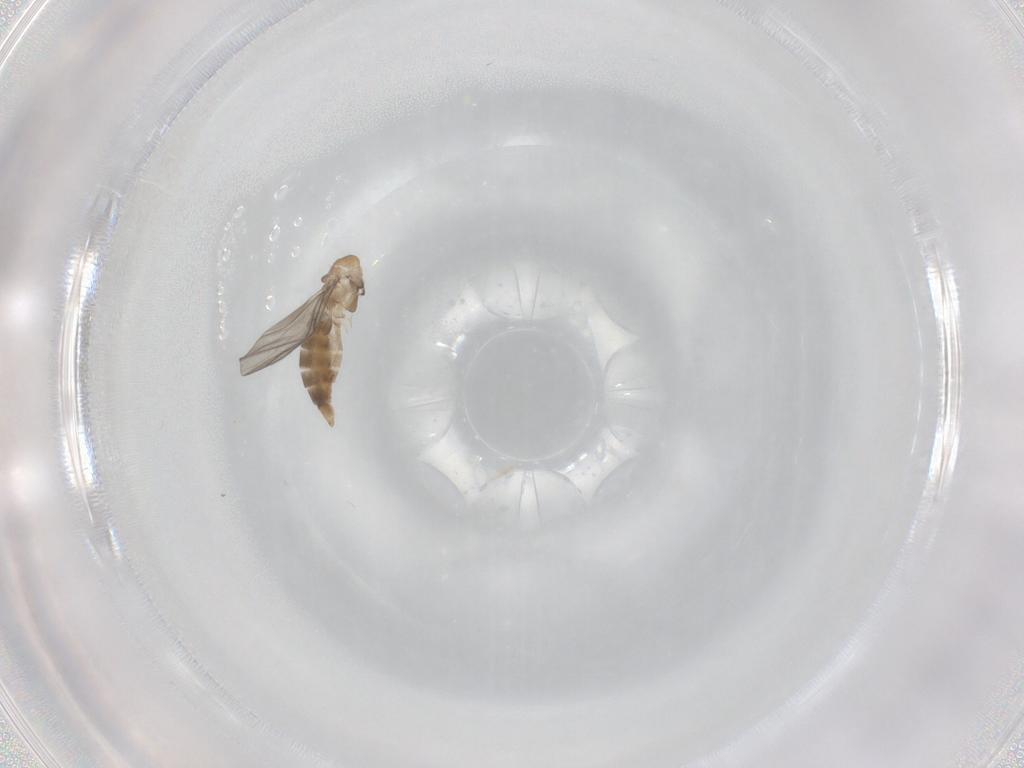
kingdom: Animalia
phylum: Arthropoda
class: Insecta
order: Diptera
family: Sciaridae
